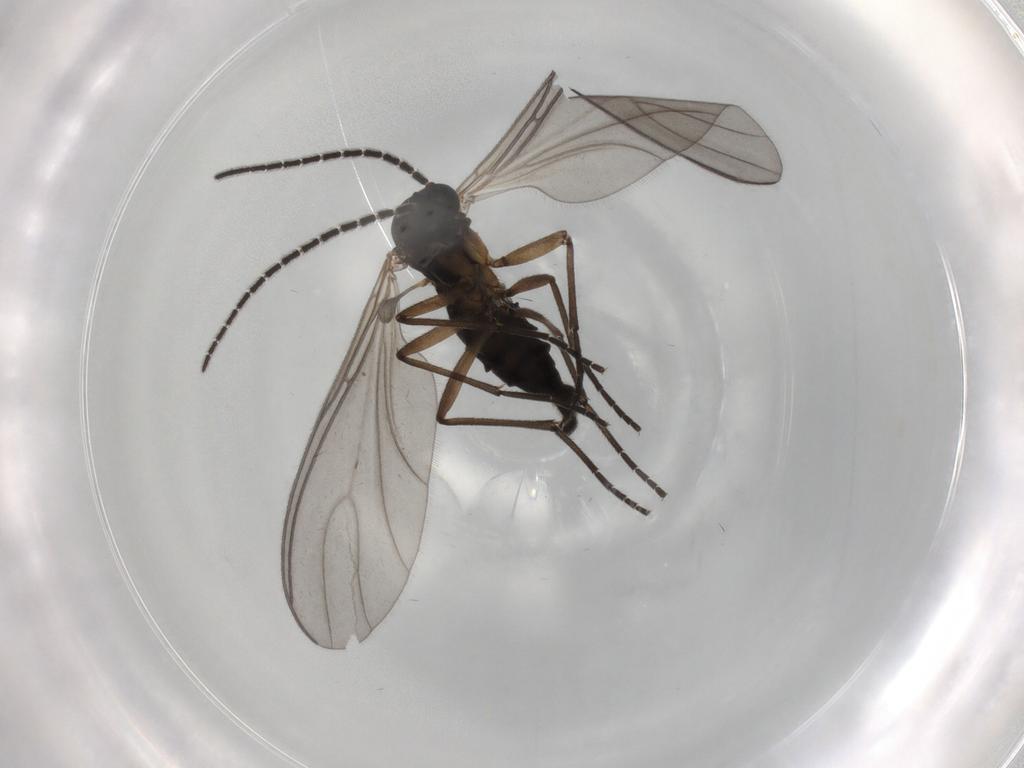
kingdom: Animalia
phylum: Arthropoda
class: Insecta
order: Diptera
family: Sciaridae
